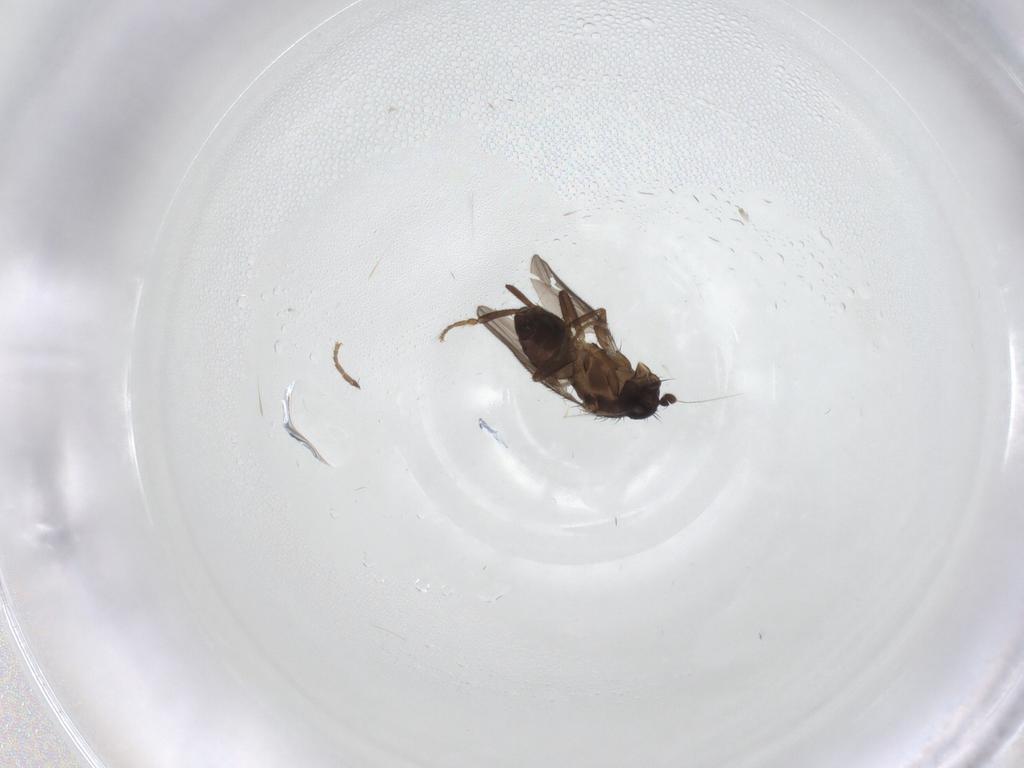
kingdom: Animalia
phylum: Arthropoda
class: Insecta
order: Diptera
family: Sphaeroceridae
